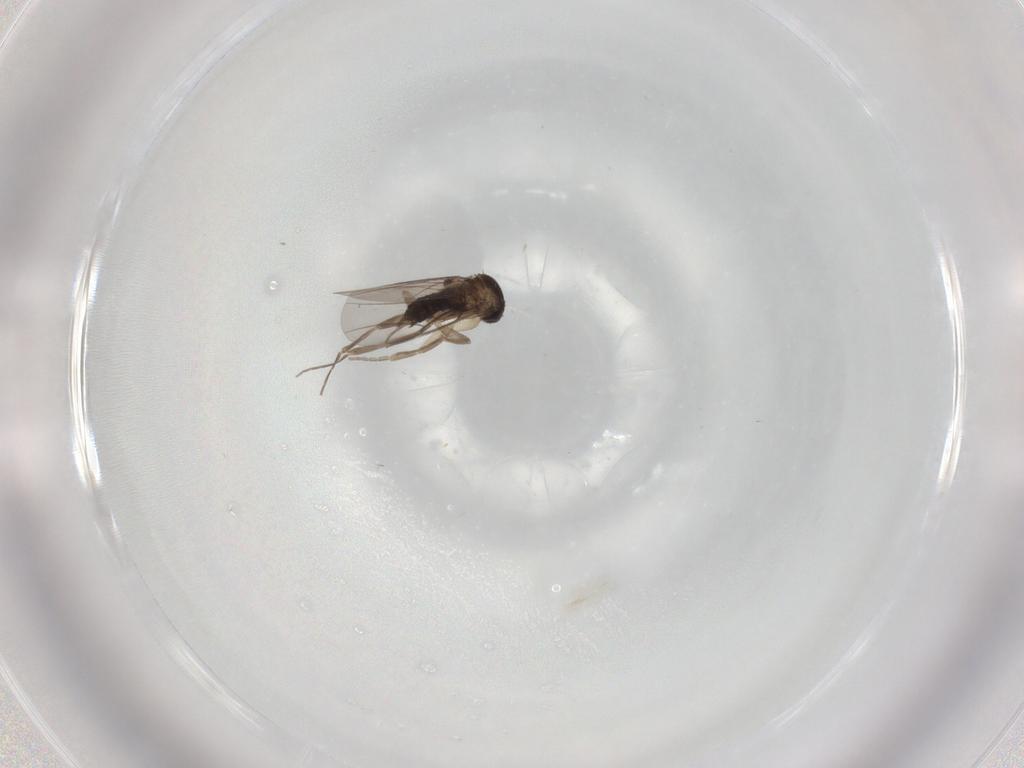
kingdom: Animalia
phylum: Arthropoda
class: Insecta
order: Diptera
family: Cecidomyiidae
